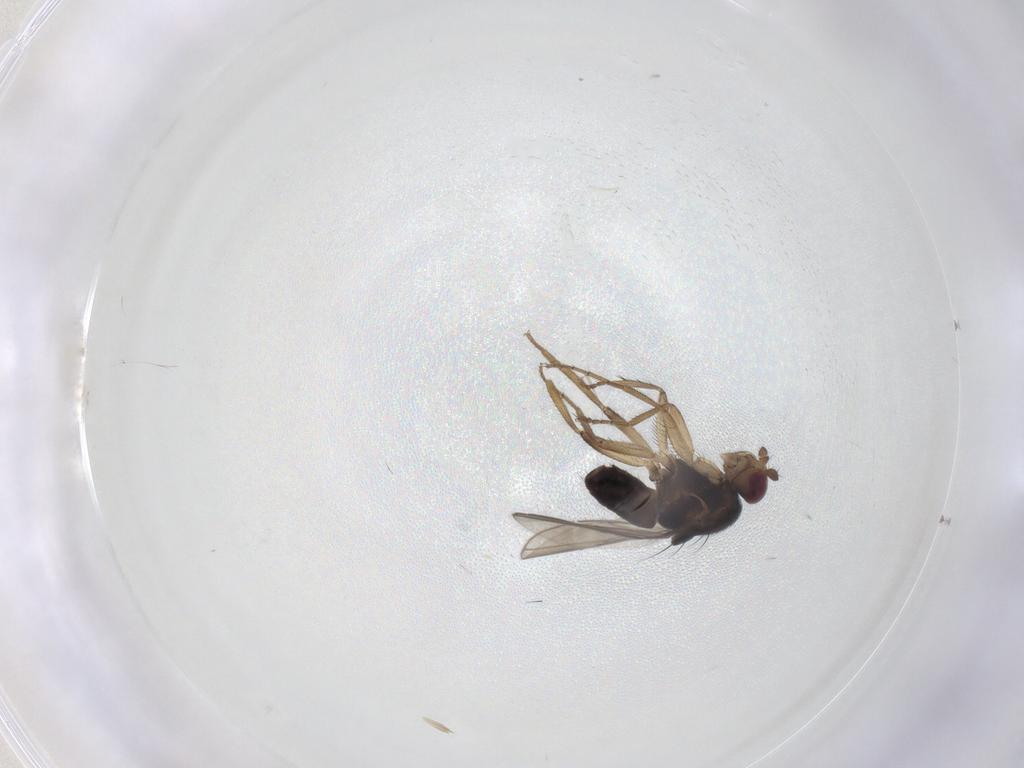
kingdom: Animalia
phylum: Arthropoda
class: Insecta
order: Diptera
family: Sphaeroceridae
